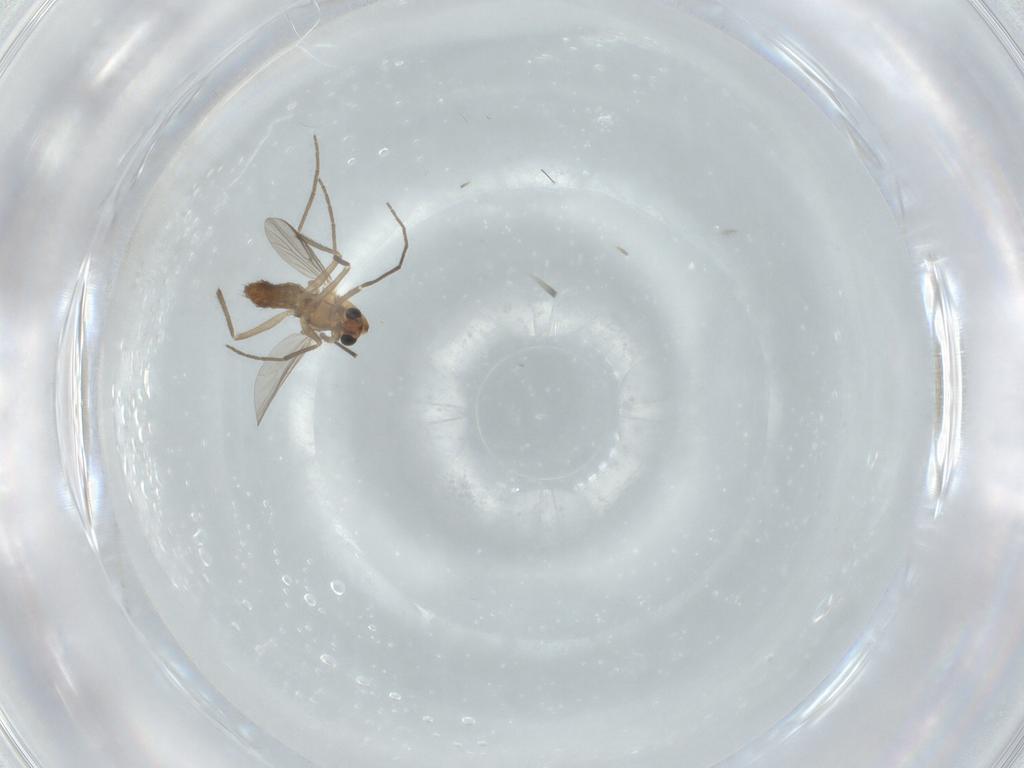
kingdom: Animalia
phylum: Arthropoda
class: Insecta
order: Diptera
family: Chironomidae
